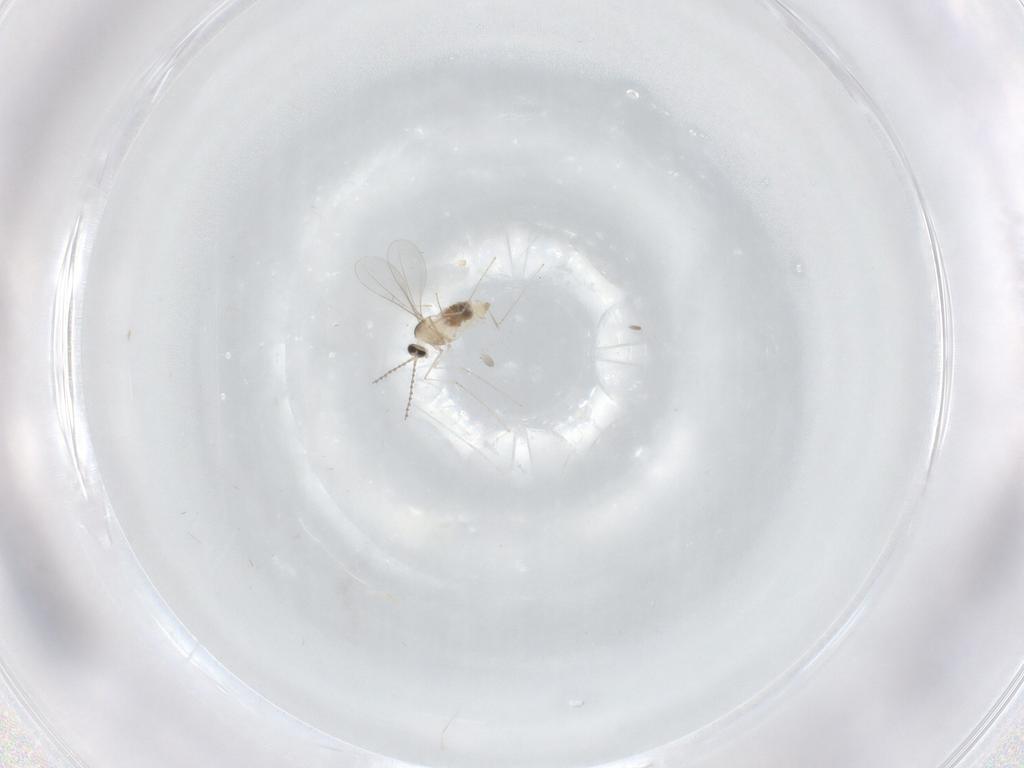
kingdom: Animalia
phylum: Arthropoda
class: Insecta
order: Diptera
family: Cecidomyiidae
